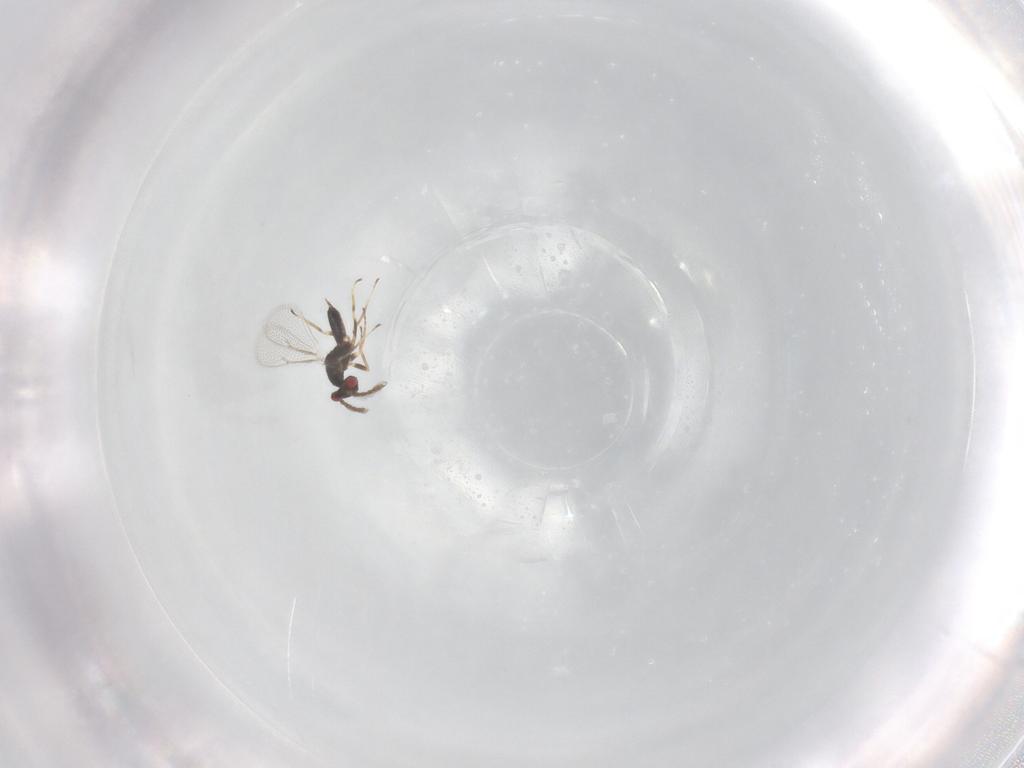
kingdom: Animalia
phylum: Arthropoda
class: Insecta
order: Hymenoptera
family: Eulophidae
